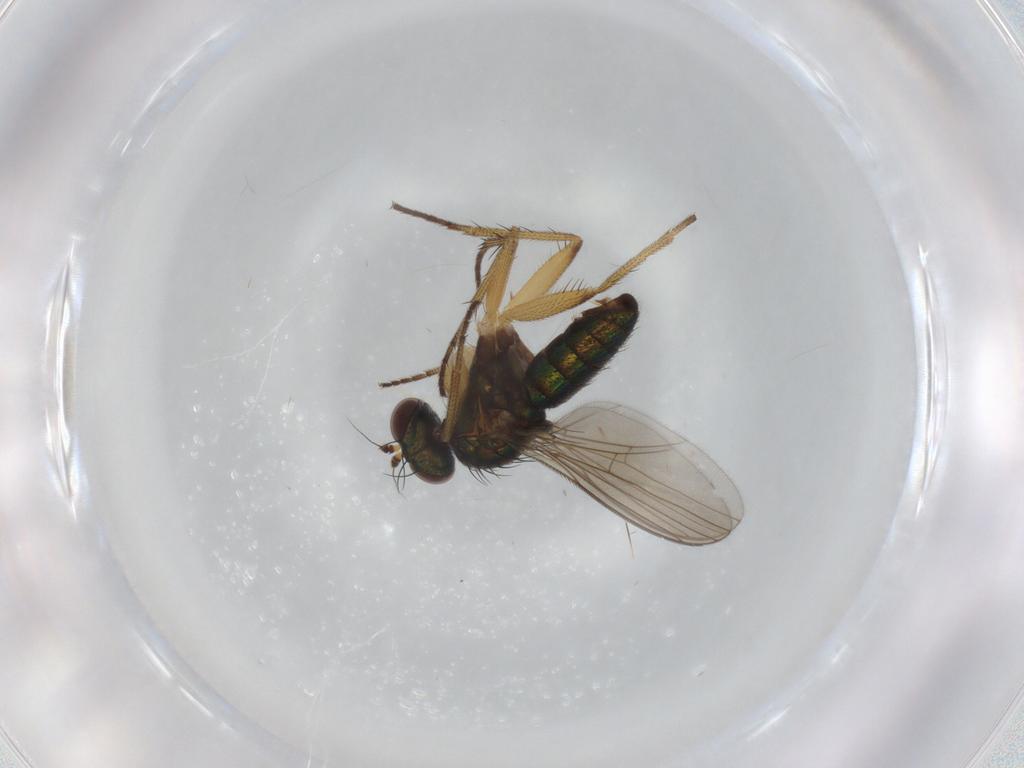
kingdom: Animalia
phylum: Arthropoda
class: Insecta
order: Diptera
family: Dolichopodidae
